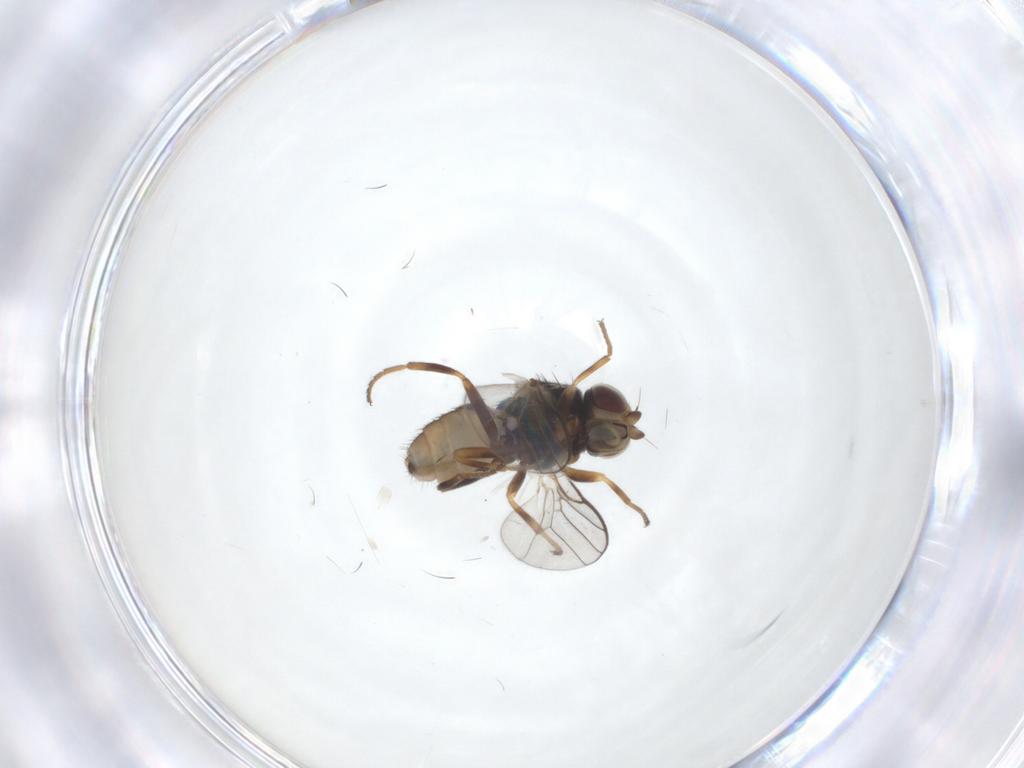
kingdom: Animalia
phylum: Arthropoda
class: Insecta
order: Diptera
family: Chloropidae
